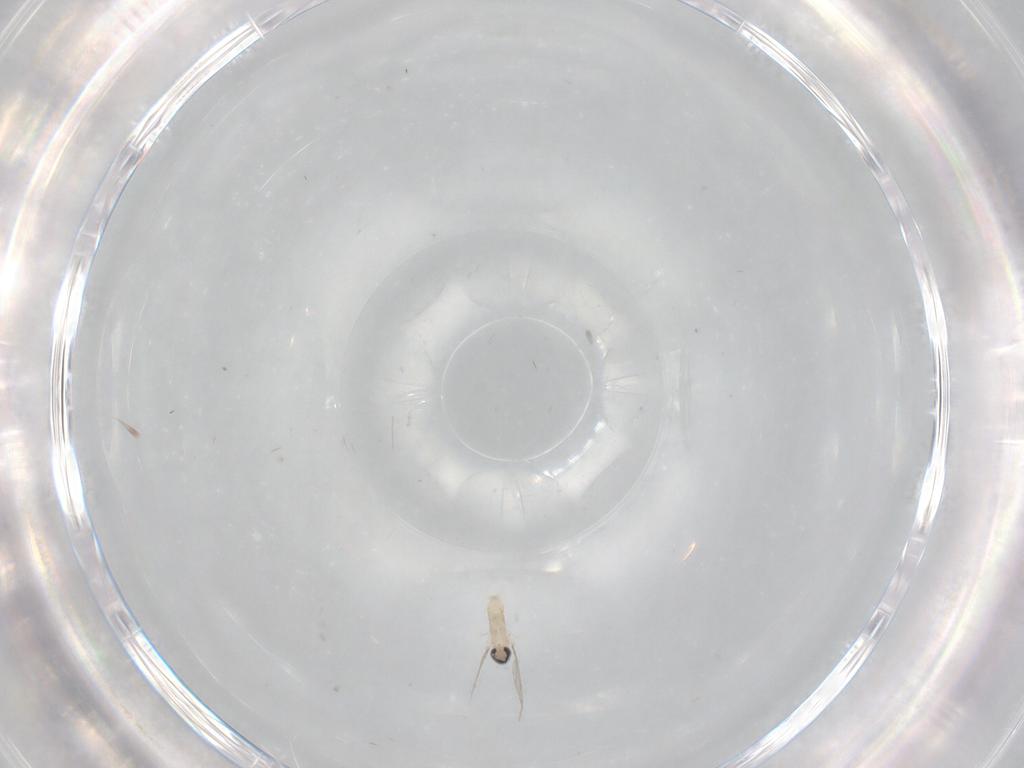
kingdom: Animalia
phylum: Arthropoda
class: Insecta
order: Diptera
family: Cecidomyiidae
